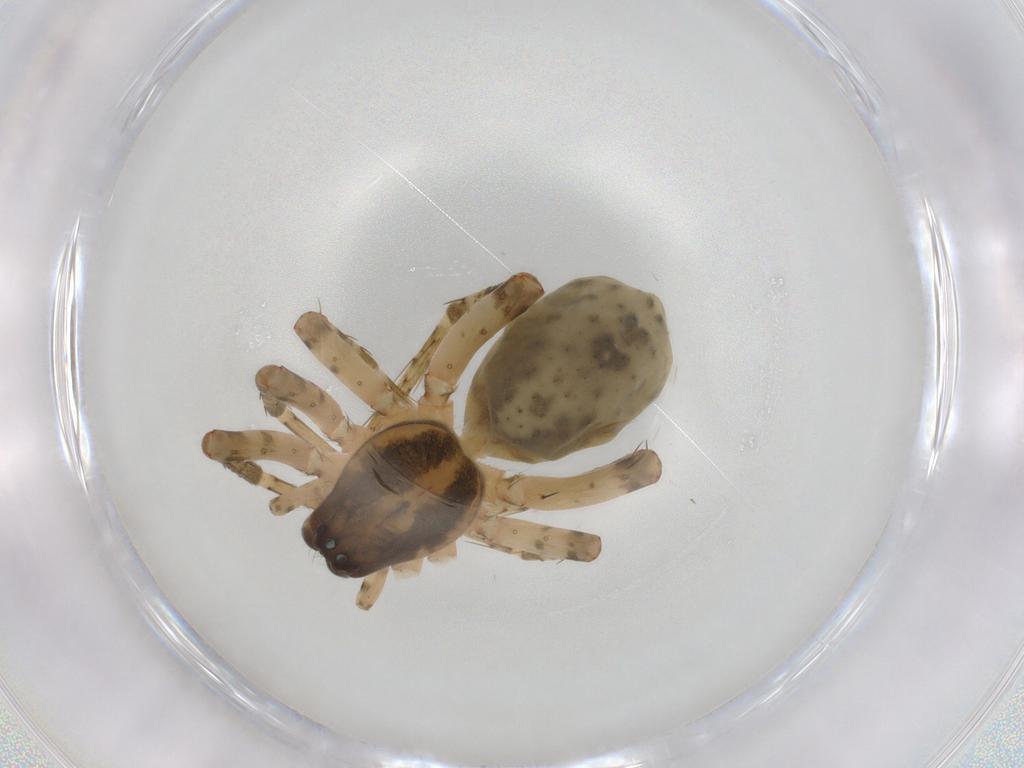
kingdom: Animalia
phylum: Arthropoda
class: Arachnida
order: Araneae
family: Anyphaenidae
